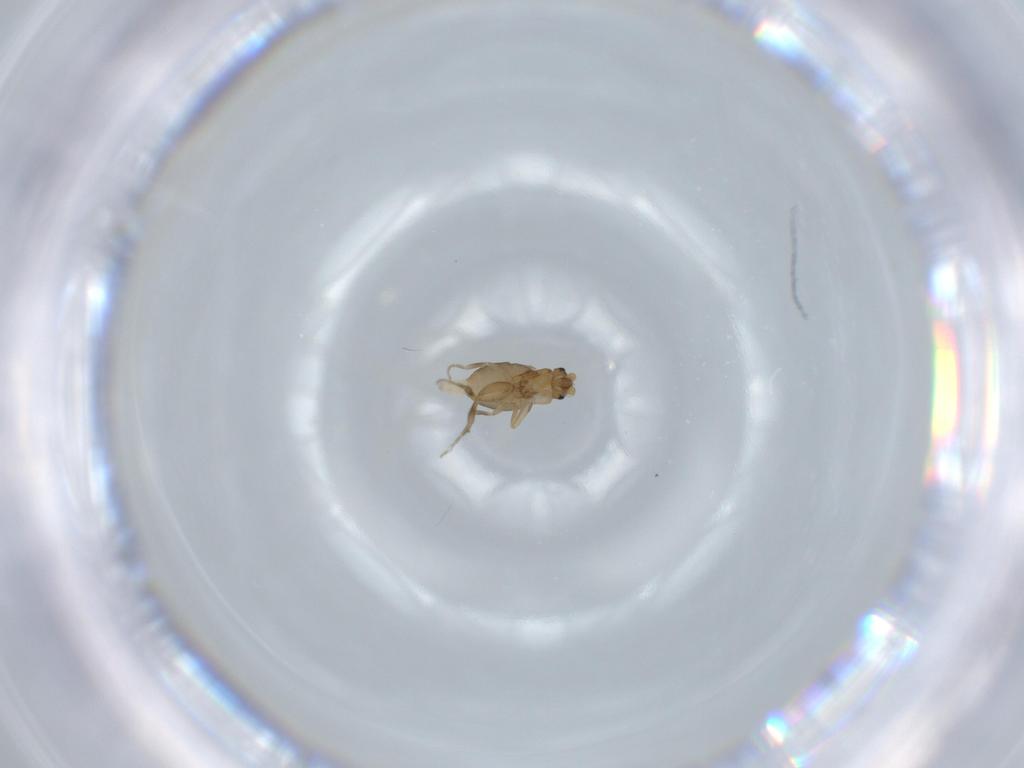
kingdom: Animalia
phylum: Arthropoda
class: Insecta
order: Diptera
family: Phoridae
